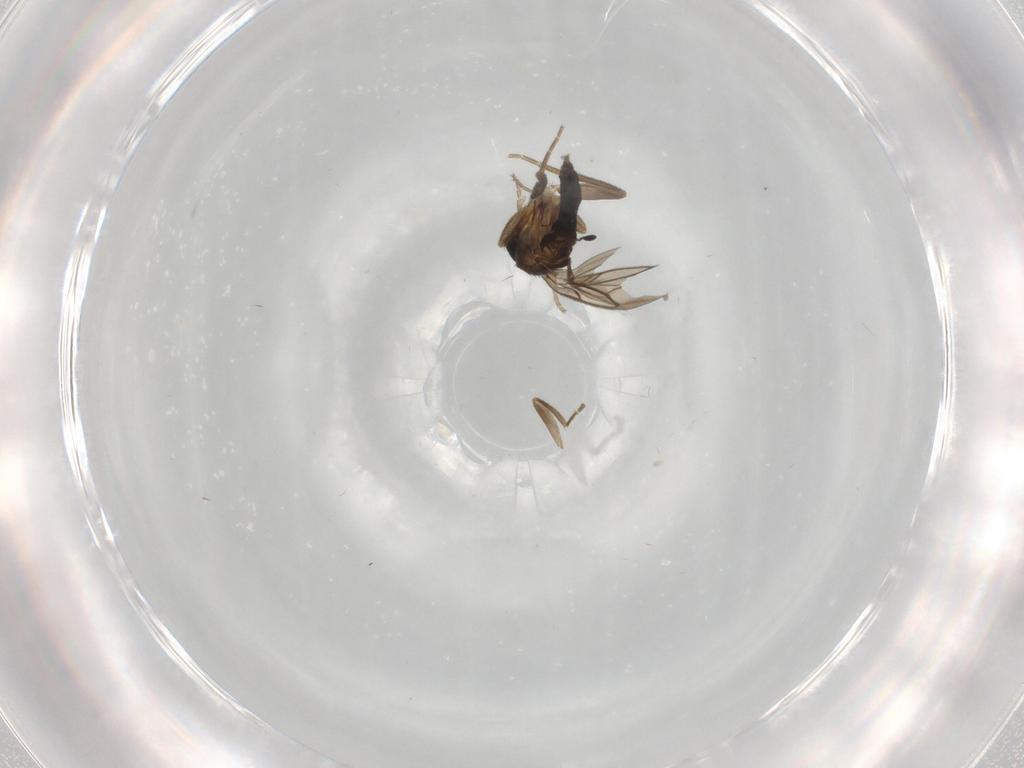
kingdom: Animalia
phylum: Arthropoda
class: Insecta
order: Diptera
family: Phoridae
